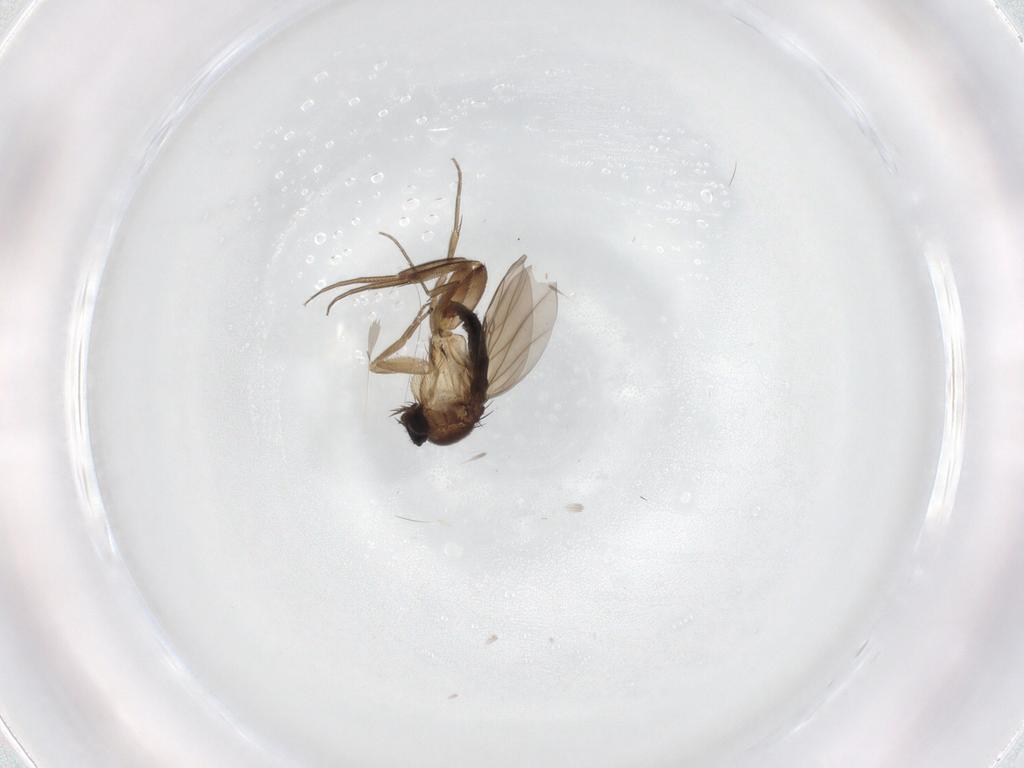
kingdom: Animalia
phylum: Arthropoda
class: Insecta
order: Diptera
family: Phoridae
